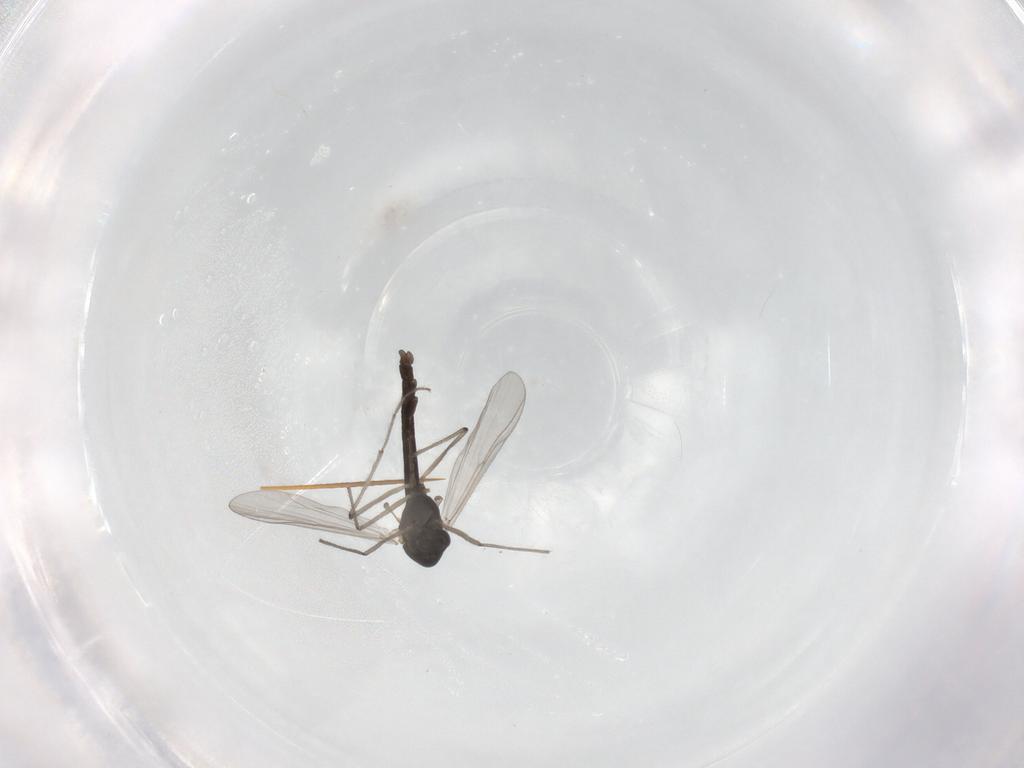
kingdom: Animalia
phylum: Arthropoda
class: Insecta
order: Diptera
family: Chironomidae
